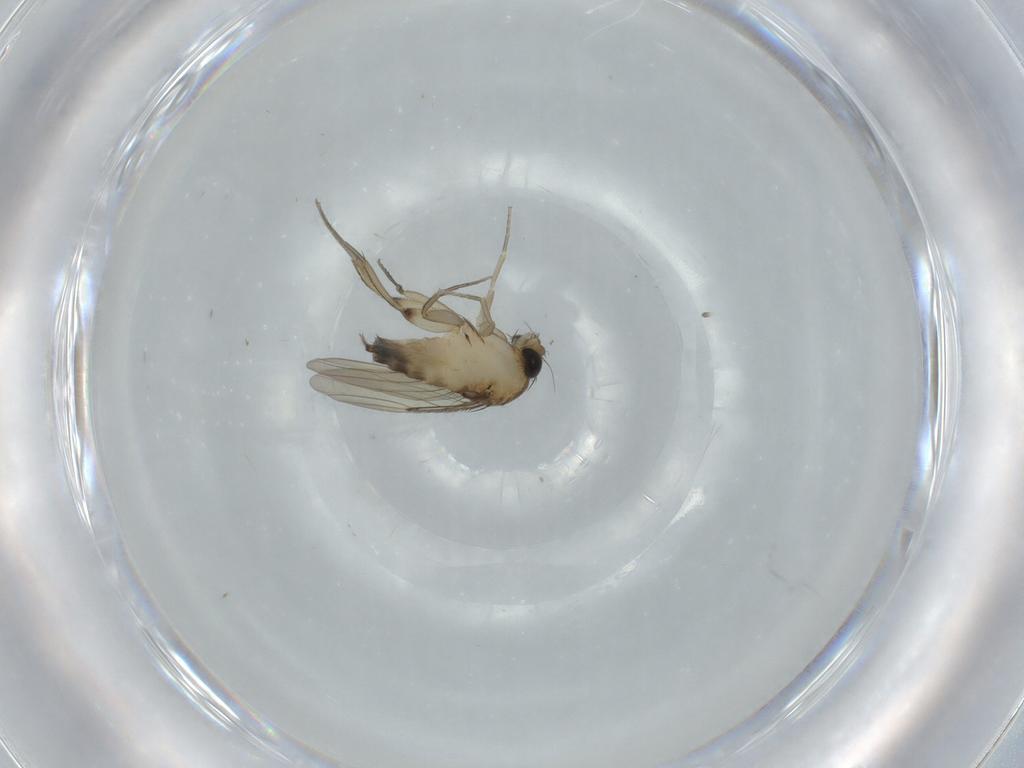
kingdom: Animalia
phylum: Arthropoda
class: Insecta
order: Diptera
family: Phoridae
